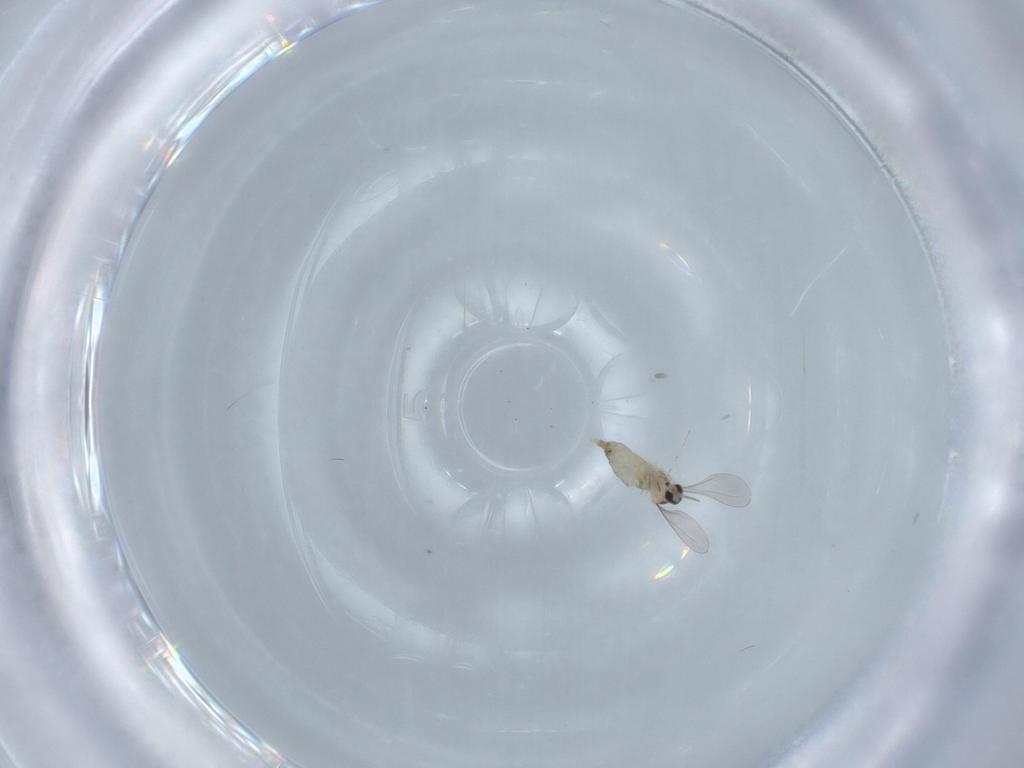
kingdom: Animalia
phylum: Arthropoda
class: Insecta
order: Diptera
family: Limoniidae
